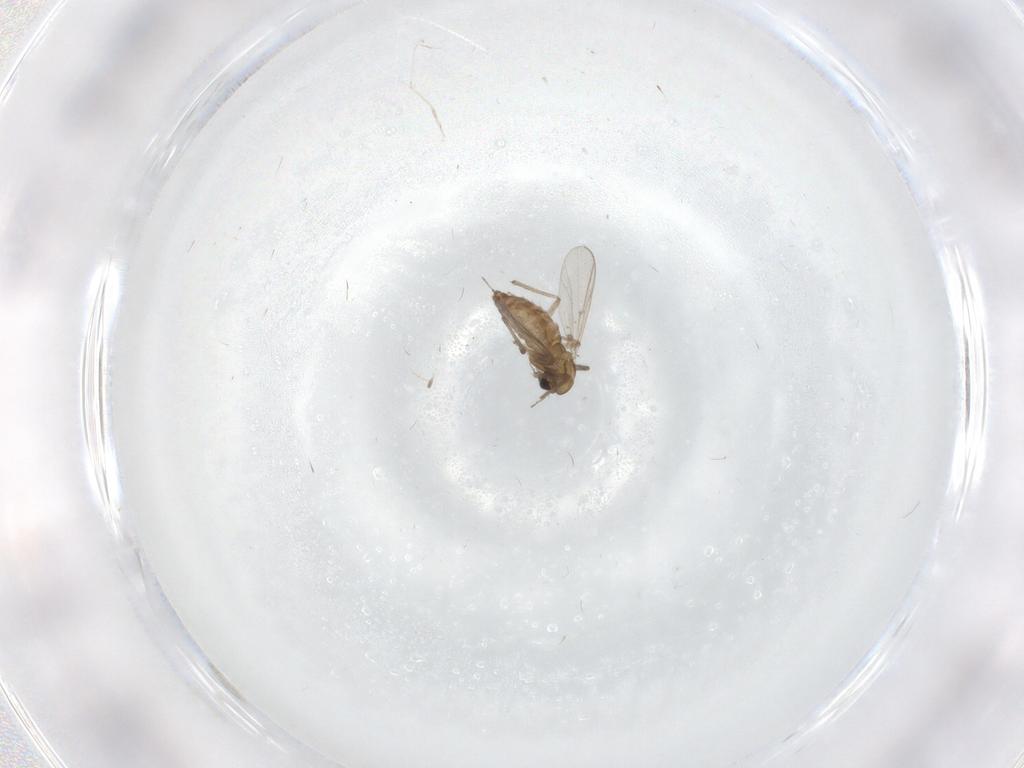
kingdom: Animalia
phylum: Arthropoda
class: Insecta
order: Diptera
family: Chironomidae
